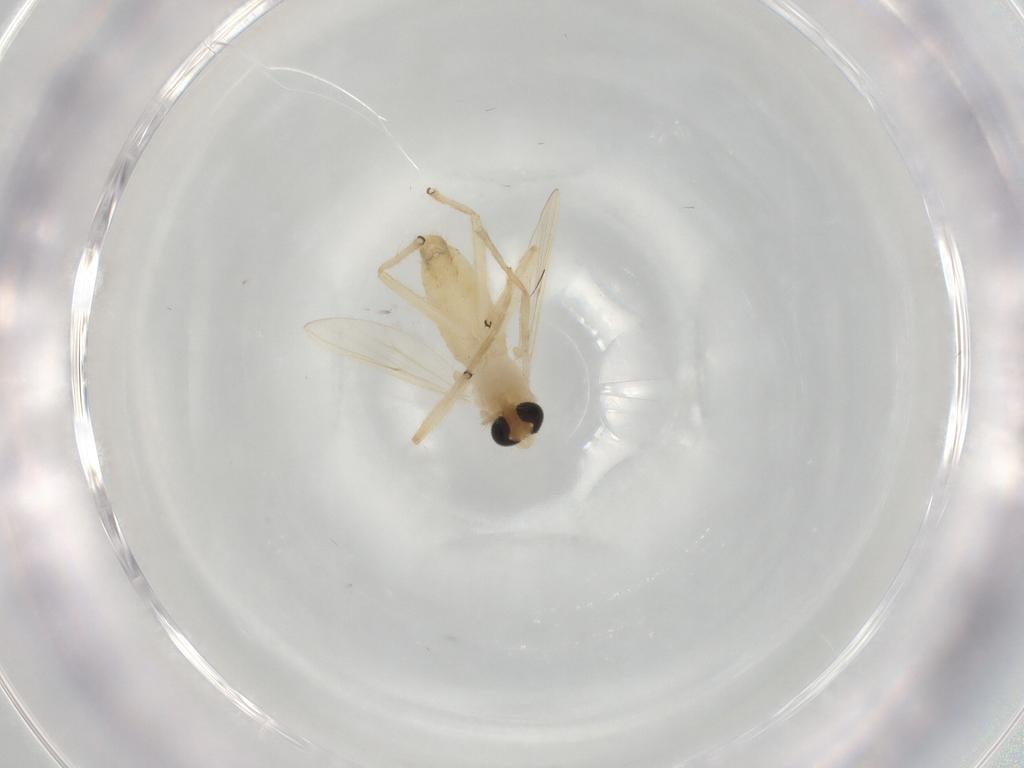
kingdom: Animalia
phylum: Arthropoda
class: Insecta
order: Diptera
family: Chironomidae
